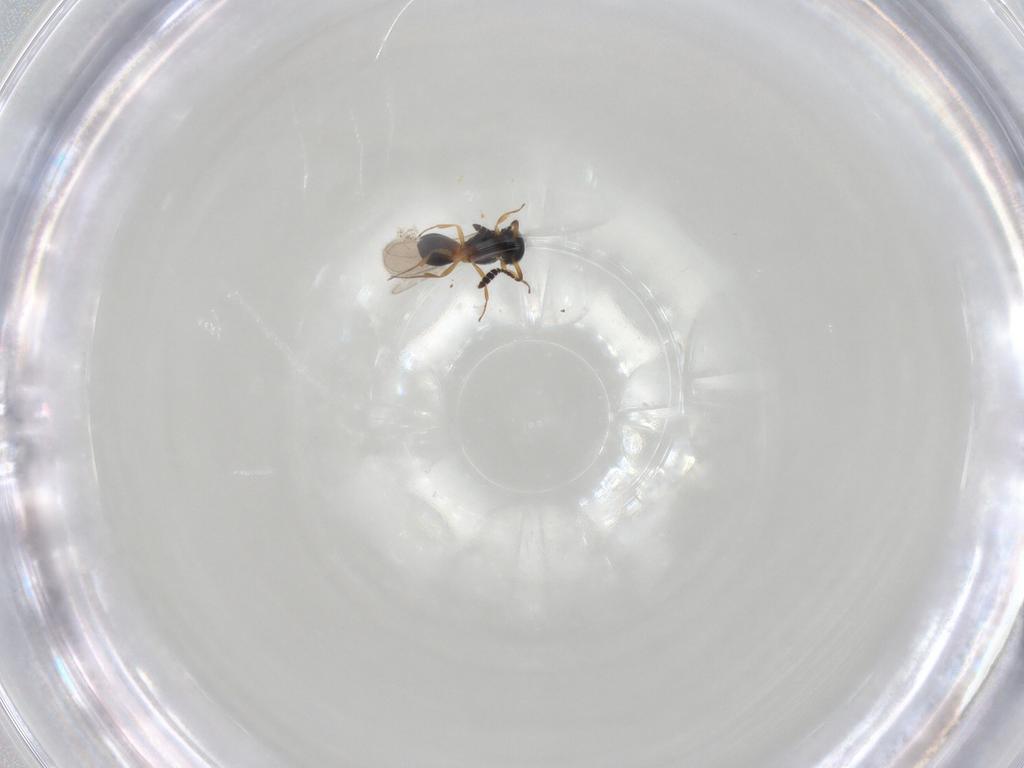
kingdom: Animalia
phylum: Arthropoda
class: Insecta
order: Hymenoptera
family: Scelionidae
